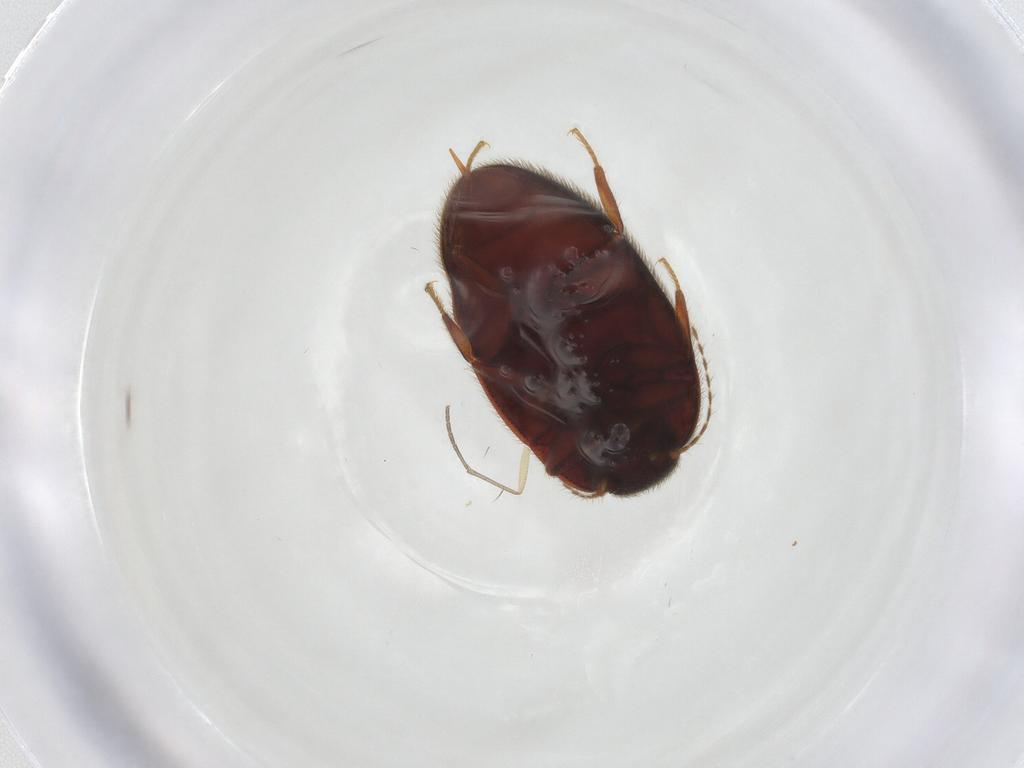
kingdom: Animalia
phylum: Arthropoda
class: Insecta
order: Coleoptera
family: Limnichidae
